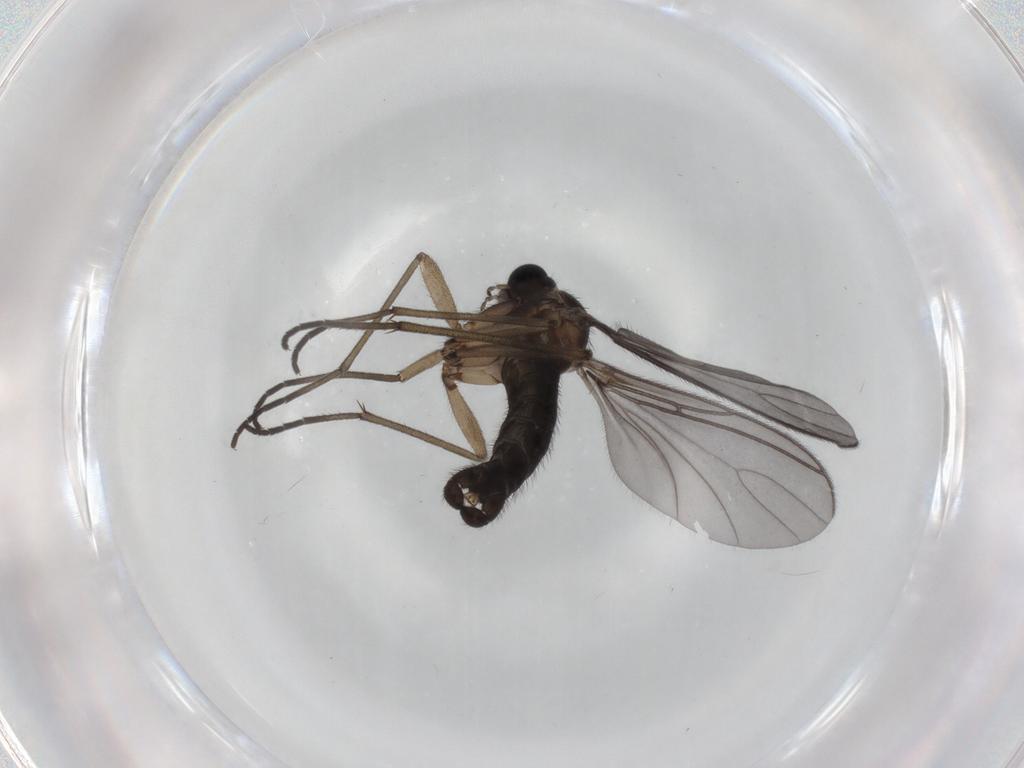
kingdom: Animalia
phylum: Arthropoda
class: Insecta
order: Diptera
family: Sciaridae
